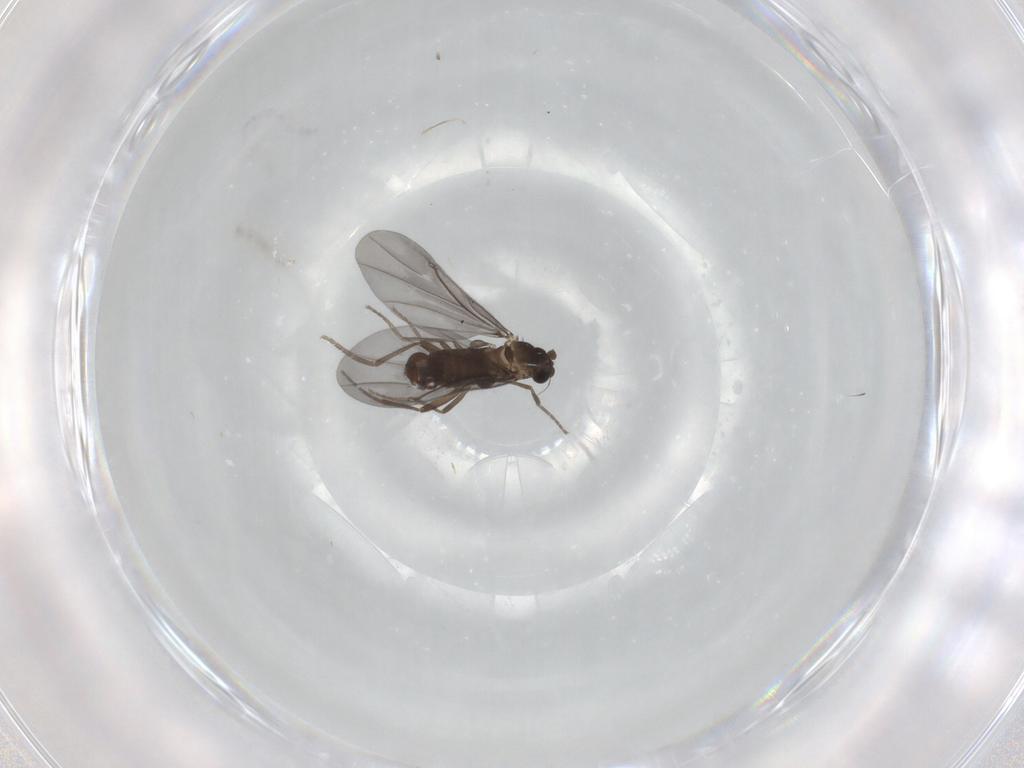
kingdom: Animalia
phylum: Arthropoda
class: Insecta
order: Diptera
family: Phoridae
